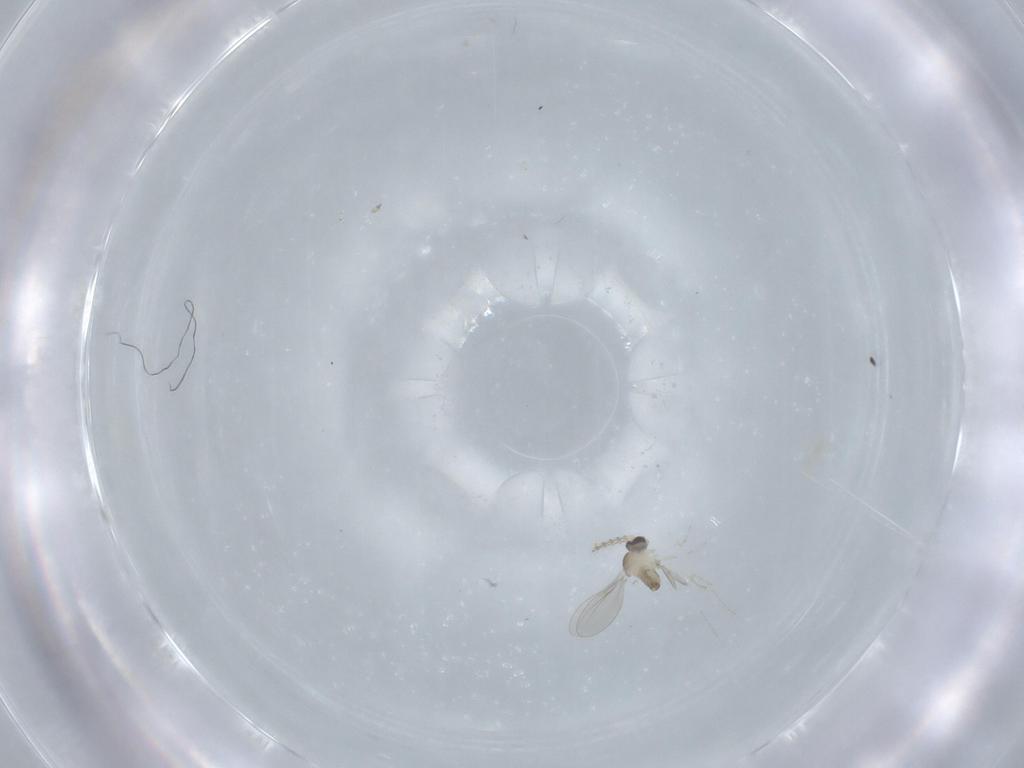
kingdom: Animalia
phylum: Arthropoda
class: Insecta
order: Diptera
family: Cecidomyiidae
